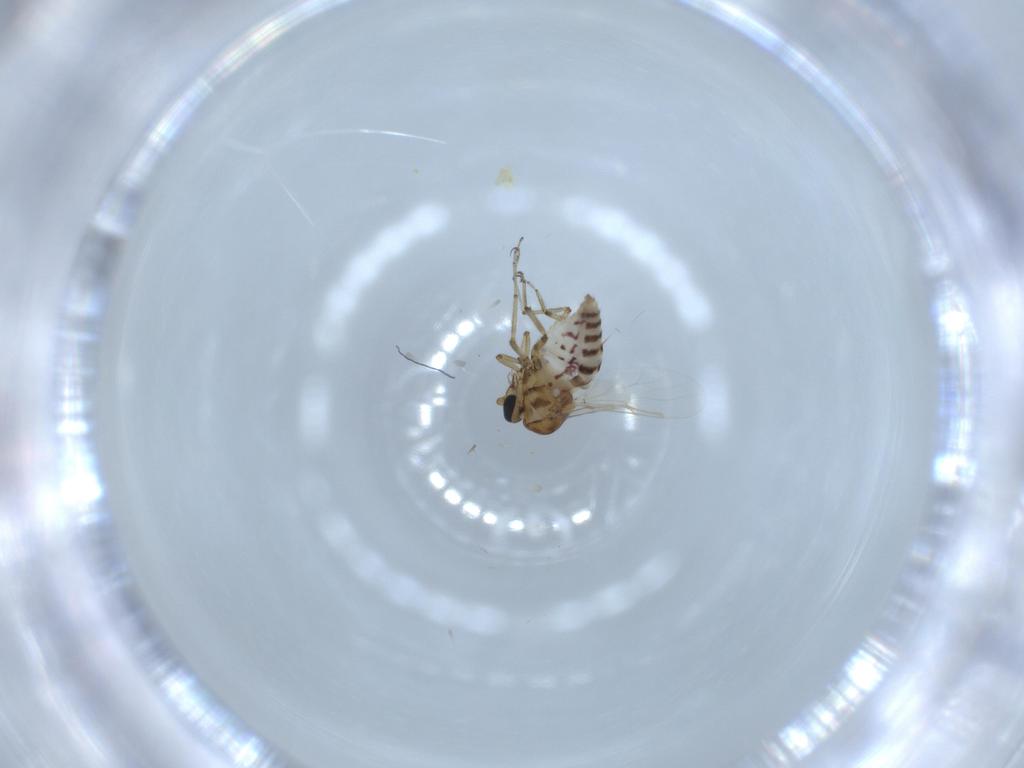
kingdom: Animalia
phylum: Arthropoda
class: Insecta
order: Diptera
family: Ceratopogonidae
